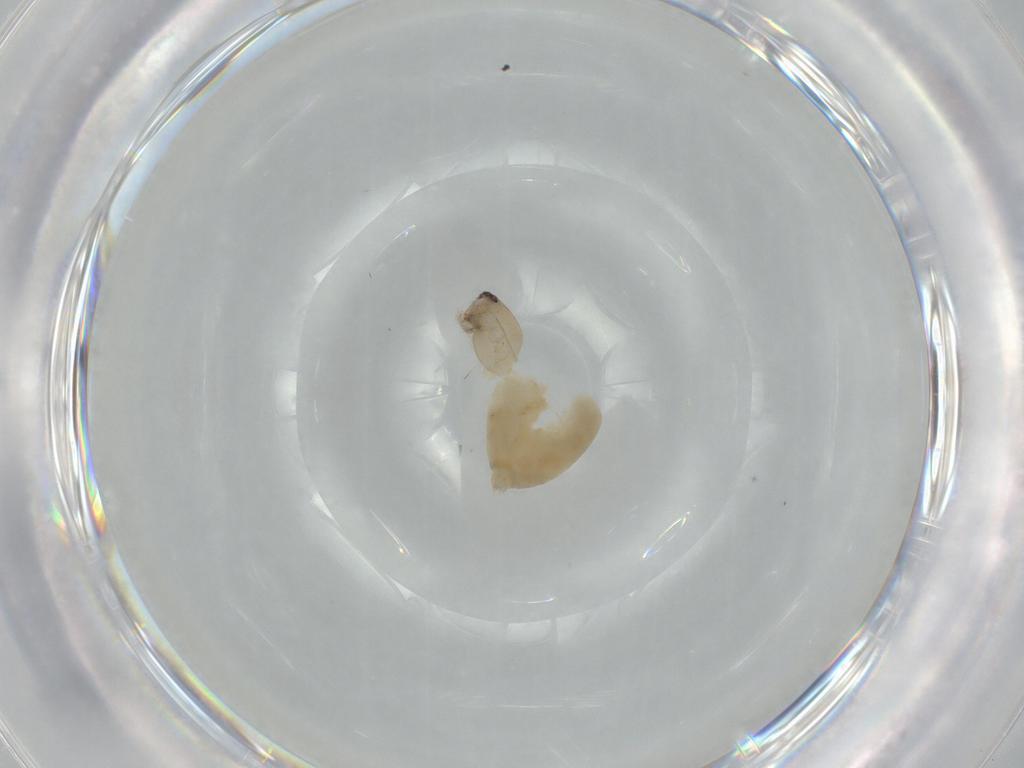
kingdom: Animalia
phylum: Arthropoda
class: Arachnida
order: Araneae
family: Amaurobiidae
